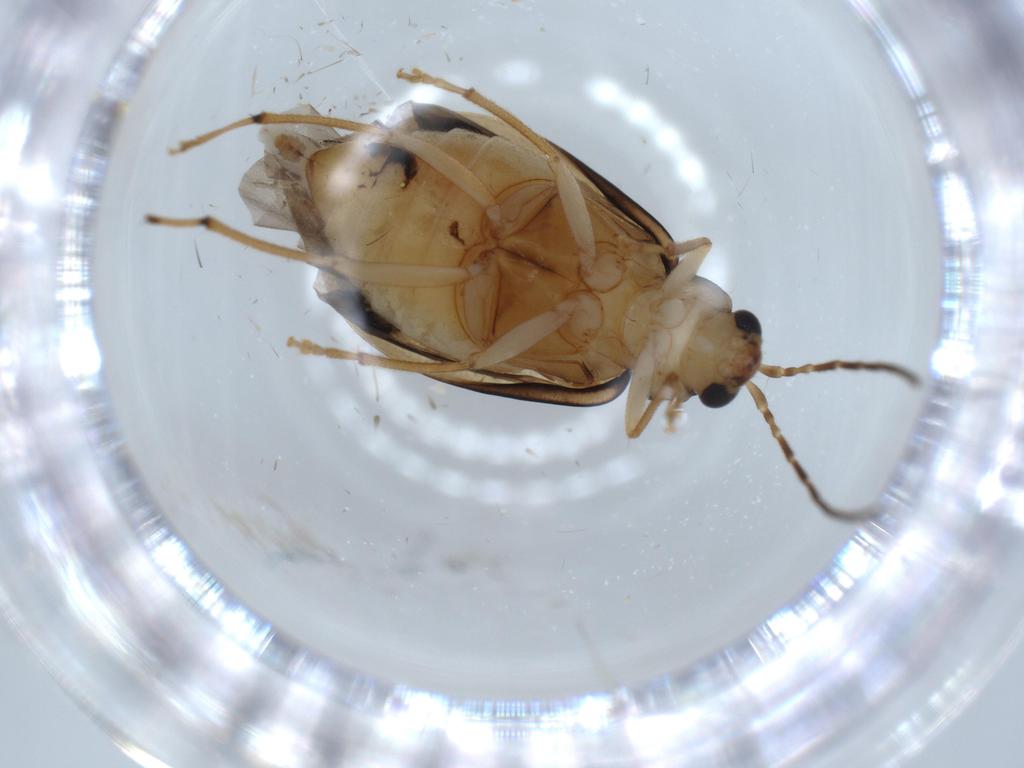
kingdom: Animalia
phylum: Arthropoda
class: Insecta
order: Coleoptera
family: Chrysomelidae
